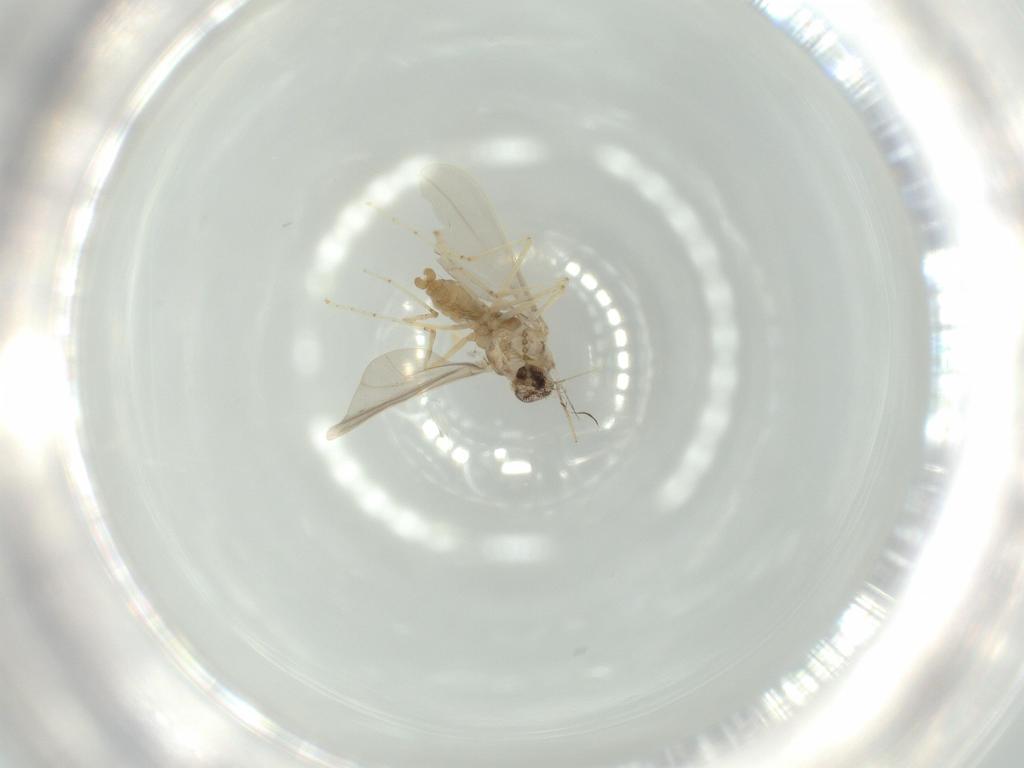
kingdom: Animalia
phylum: Arthropoda
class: Insecta
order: Diptera
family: Cecidomyiidae
